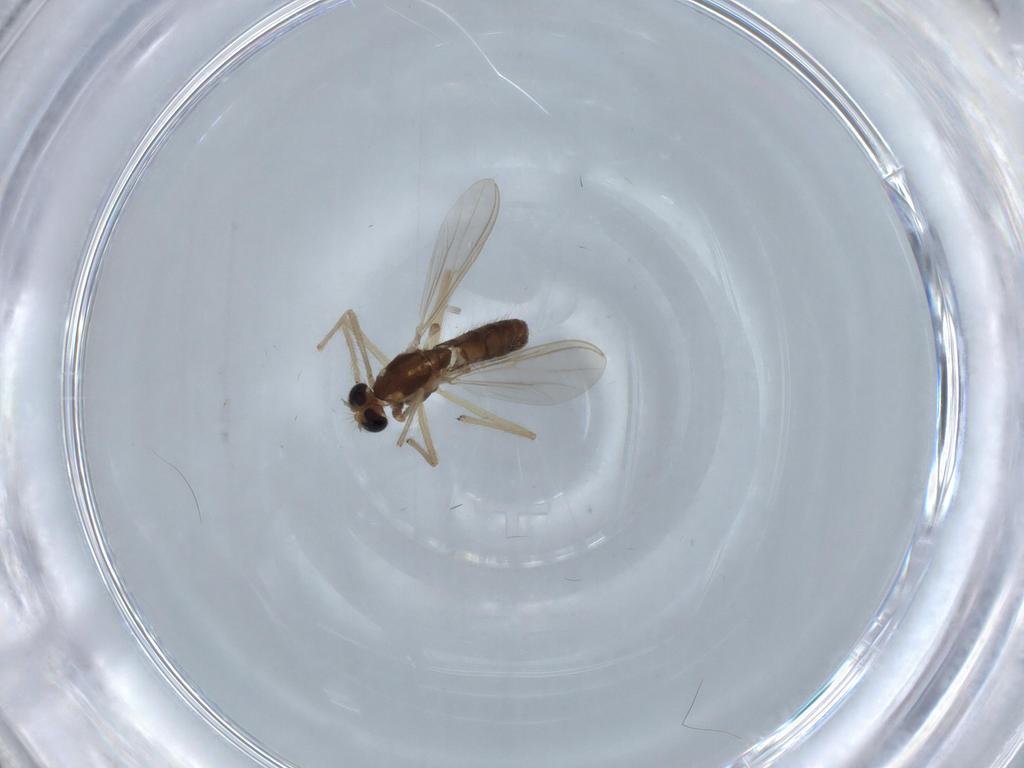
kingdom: Animalia
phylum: Arthropoda
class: Insecta
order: Diptera
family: Chironomidae
